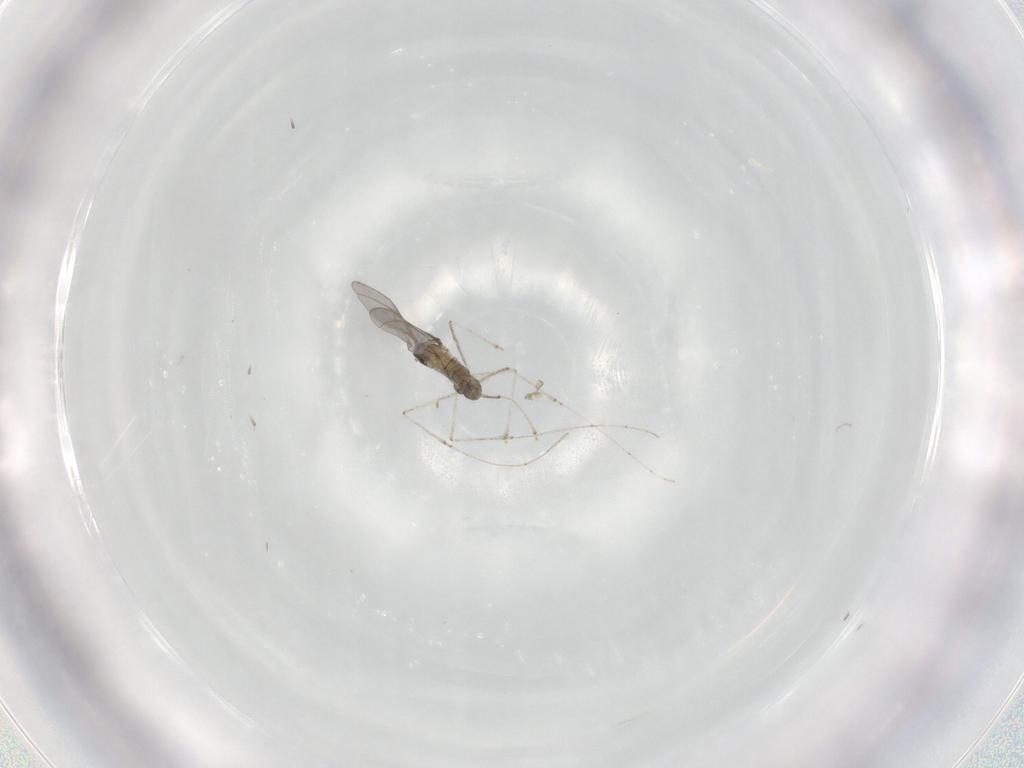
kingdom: Animalia
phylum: Arthropoda
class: Insecta
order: Diptera
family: Cecidomyiidae
